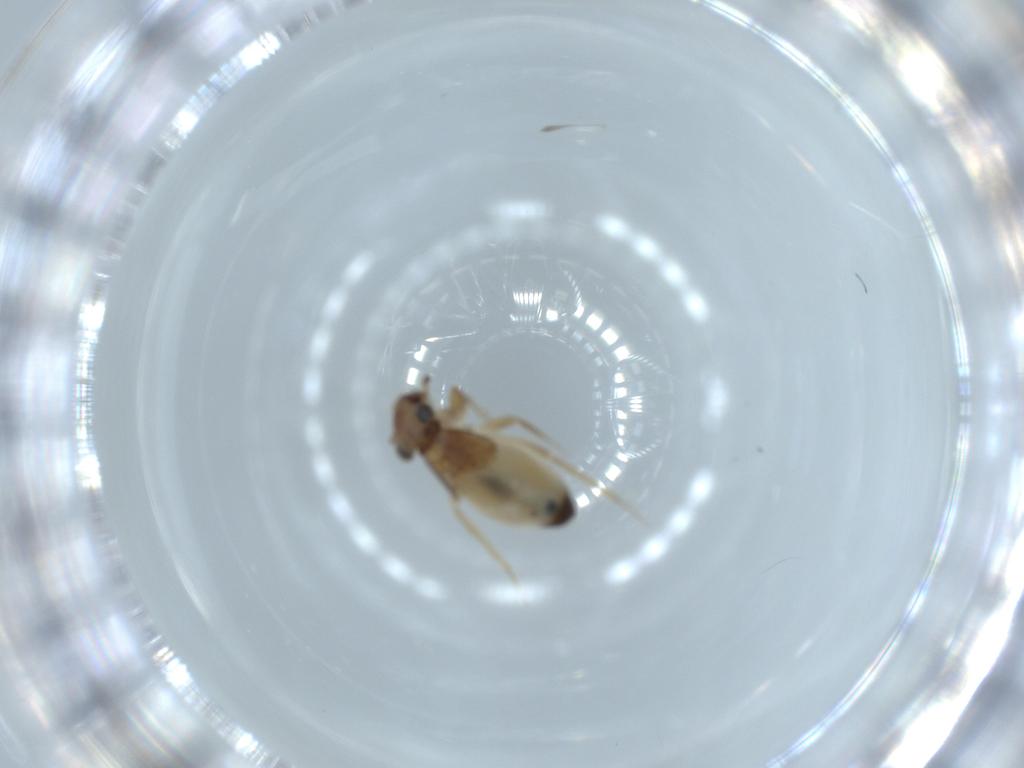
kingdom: Animalia
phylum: Arthropoda
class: Insecta
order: Psocodea
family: Lepidopsocidae
